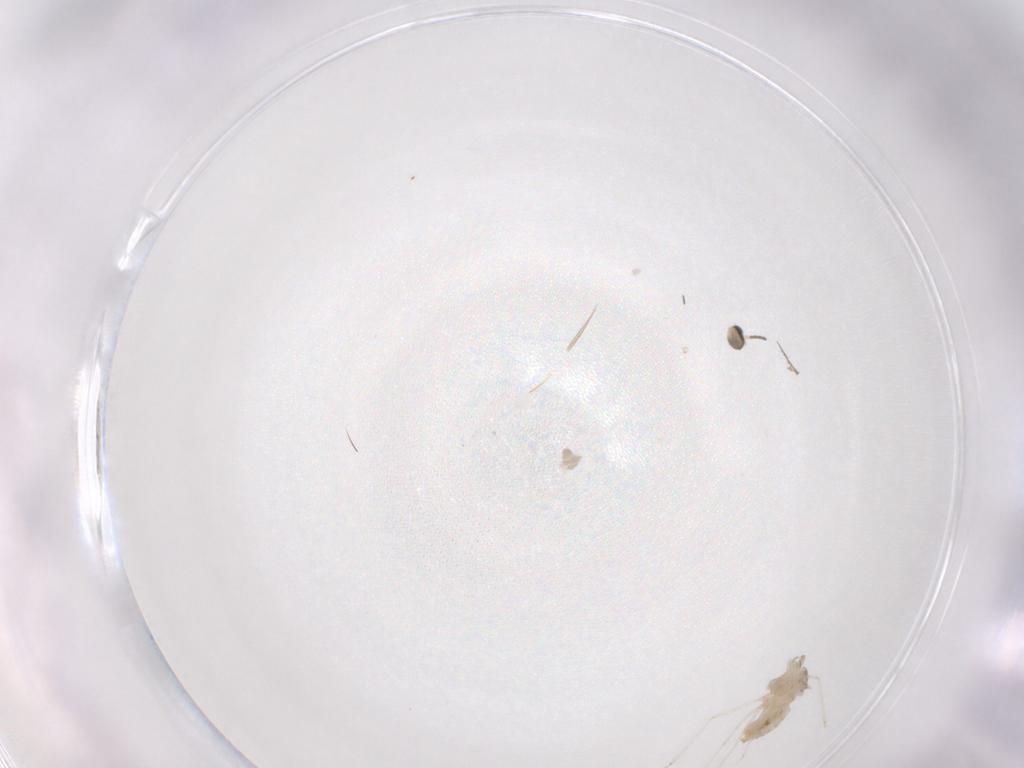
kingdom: Animalia
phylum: Arthropoda
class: Insecta
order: Diptera
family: Cecidomyiidae
